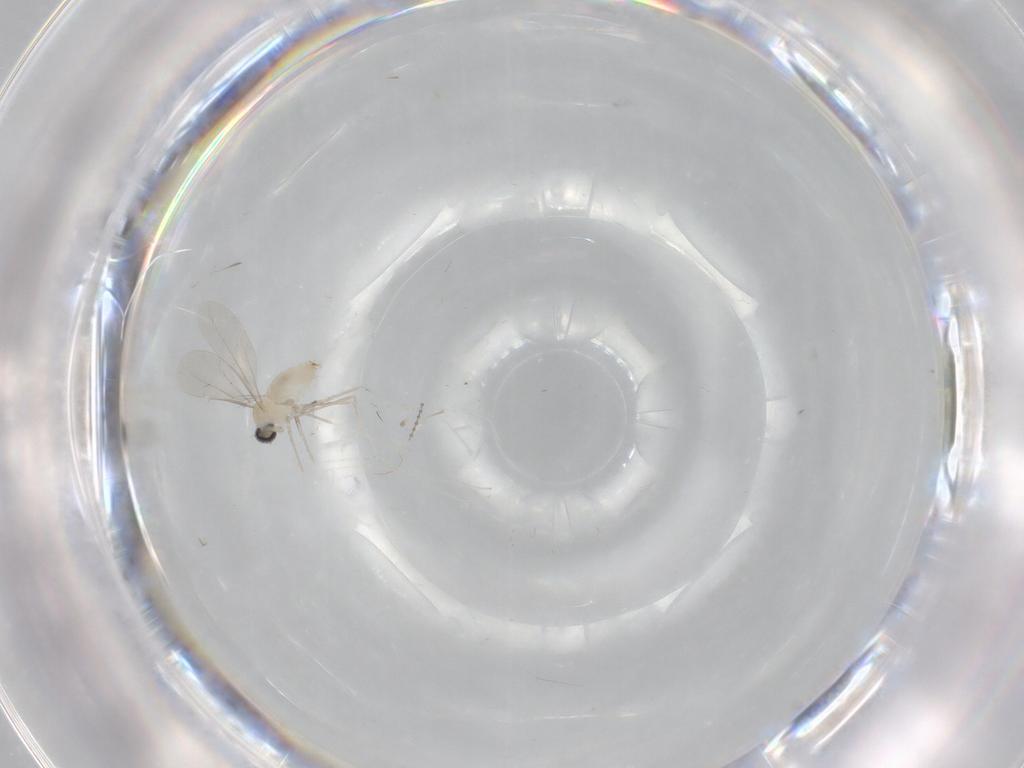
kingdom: Animalia
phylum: Arthropoda
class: Insecta
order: Diptera
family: Cecidomyiidae
